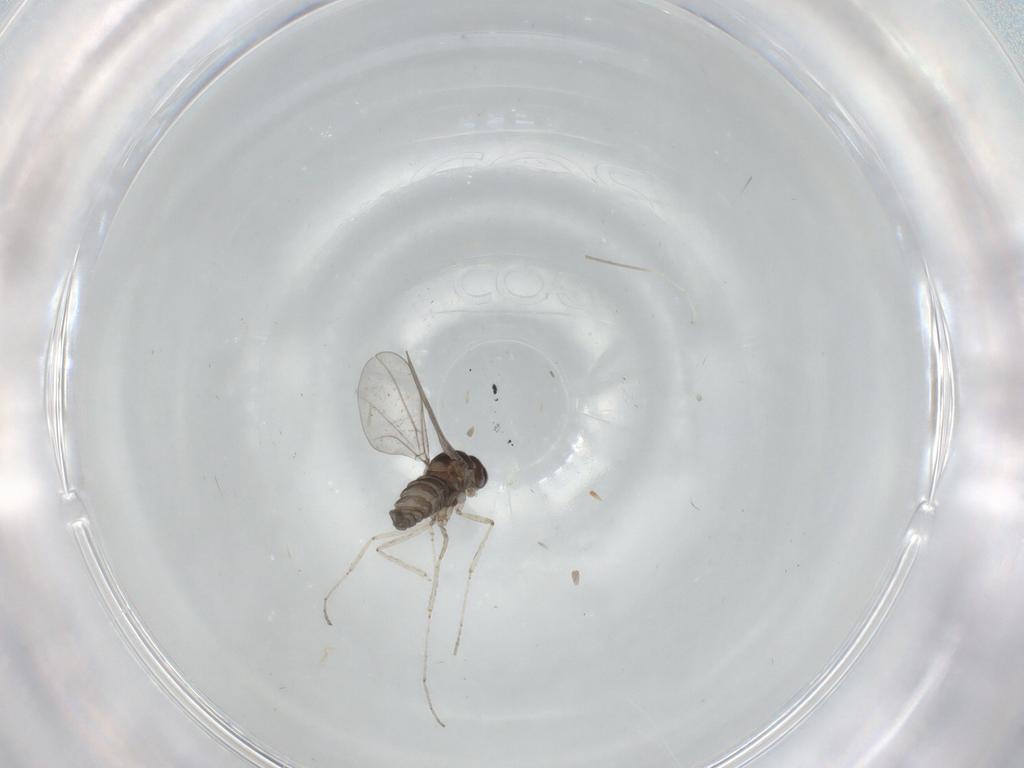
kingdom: Animalia
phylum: Arthropoda
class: Insecta
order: Diptera
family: Cecidomyiidae
